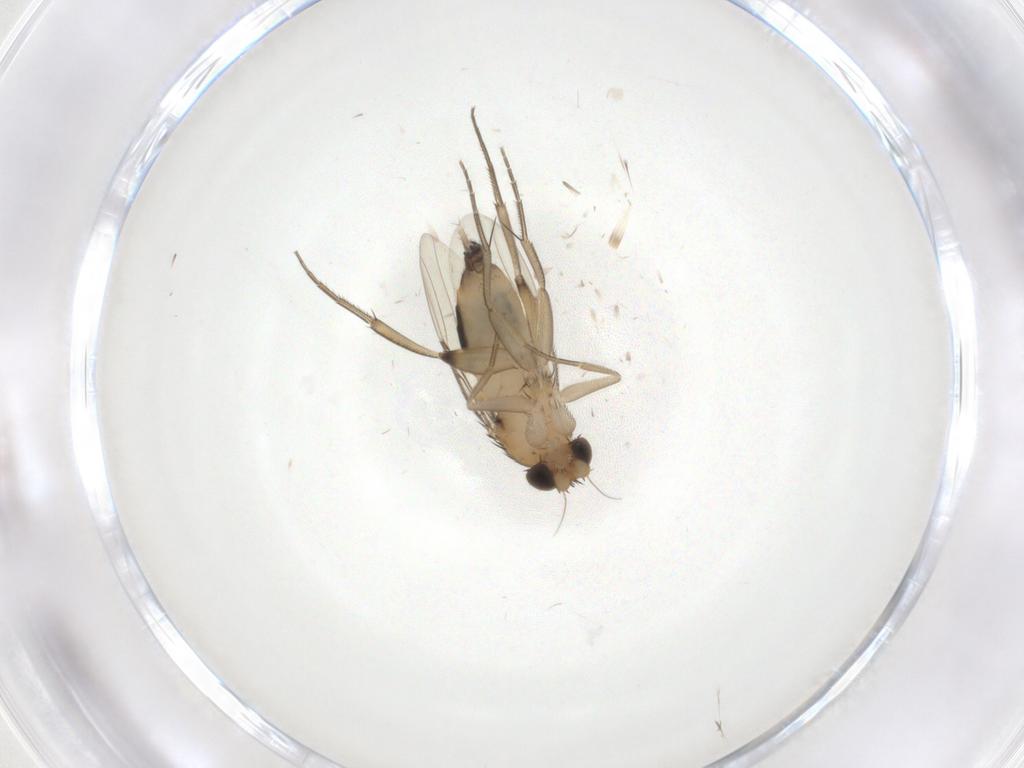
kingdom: Animalia
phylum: Arthropoda
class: Insecta
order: Diptera
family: Phoridae
